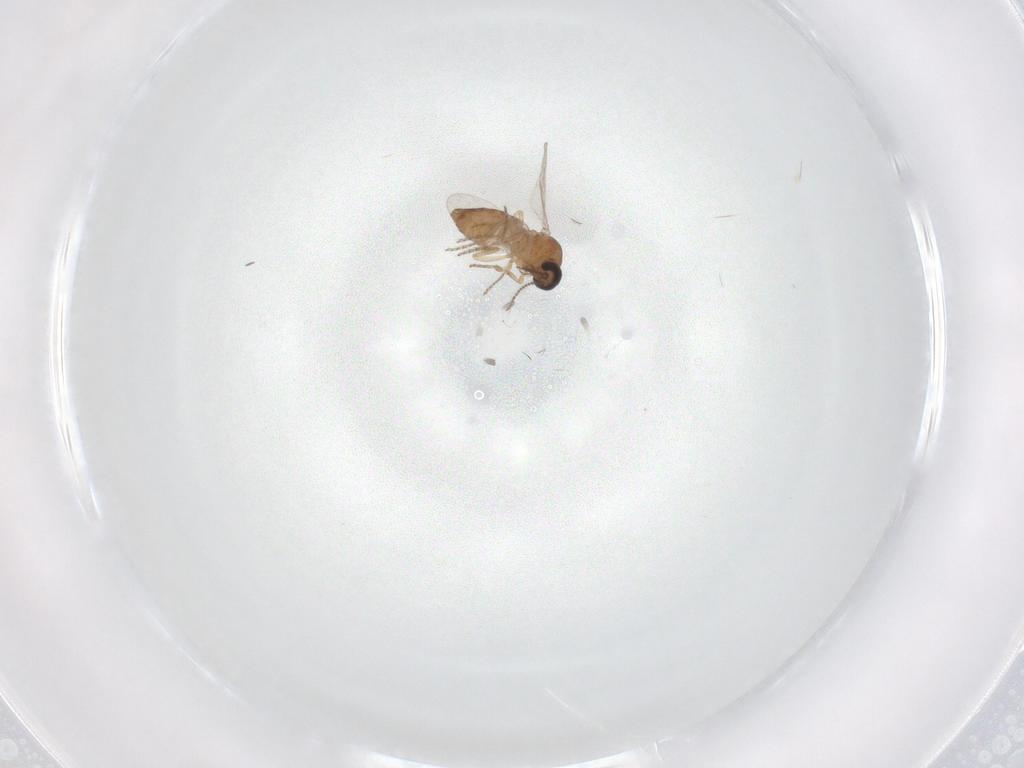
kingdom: Animalia
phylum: Arthropoda
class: Insecta
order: Diptera
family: Ceratopogonidae
